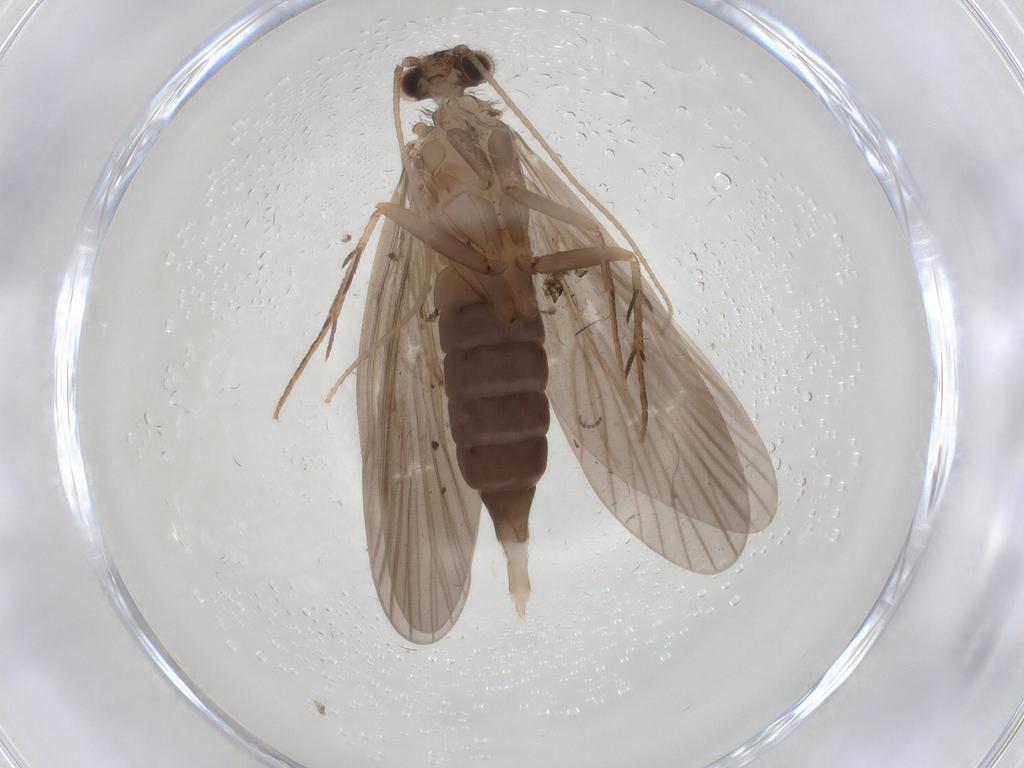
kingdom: Animalia
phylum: Arthropoda
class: Insecta
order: Trichoptera
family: Philopotamidae
